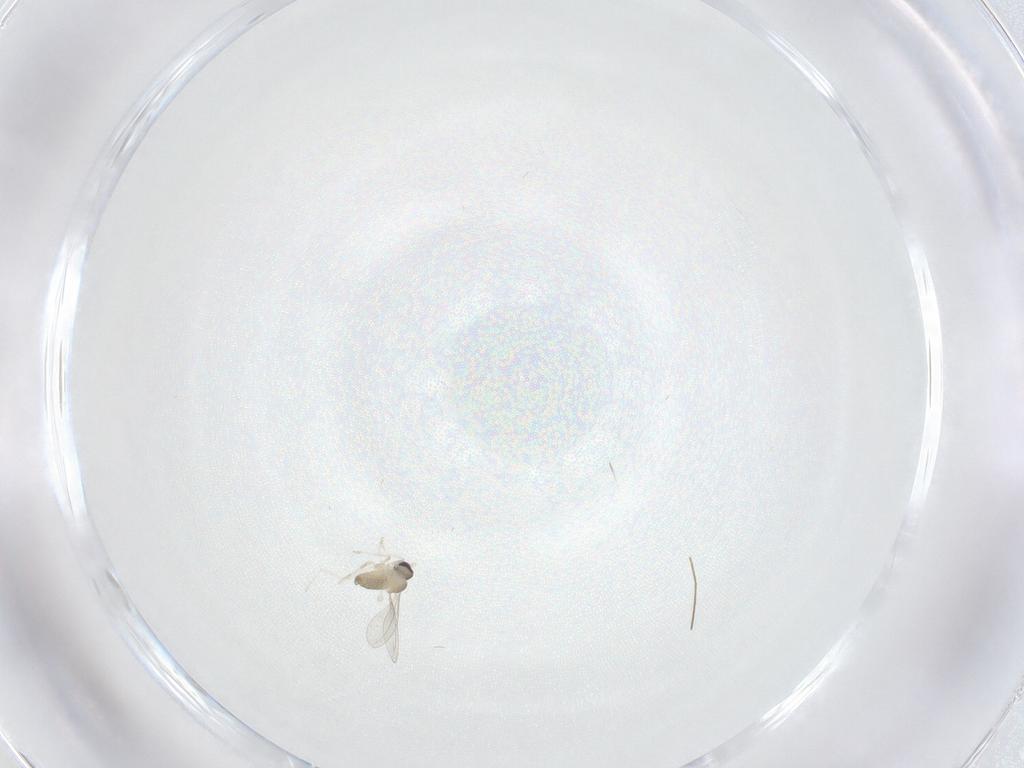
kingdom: Animalia
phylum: Arthropoda
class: Insecta
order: Diptera
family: Cecidomyiidae
